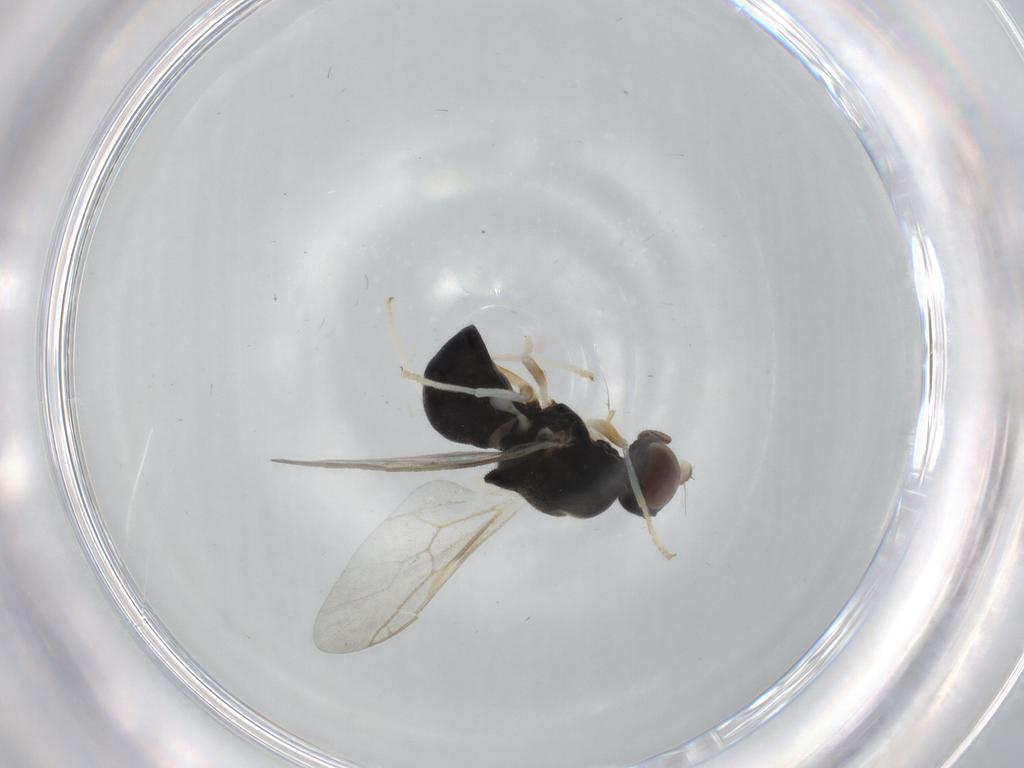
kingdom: Animalia
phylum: Arthropoda
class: Insecta
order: Diptera
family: Stratiomyidae
